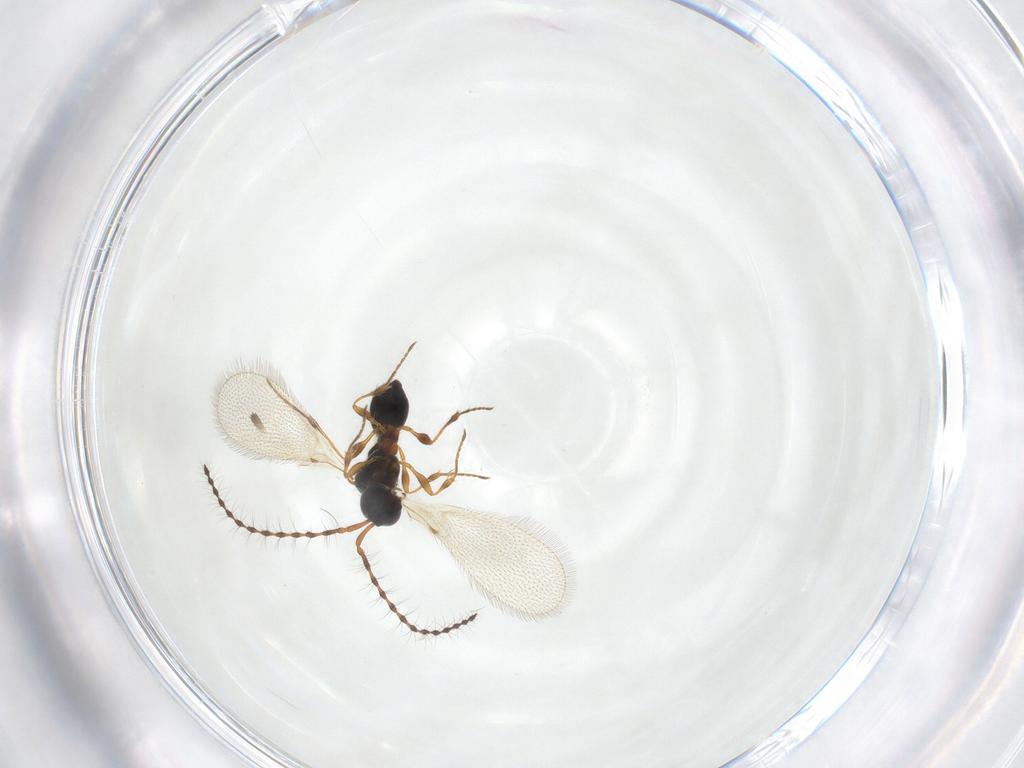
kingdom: Animalia
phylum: Arthropoda
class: Insecta
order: Hymenoptera
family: Diapriidae
